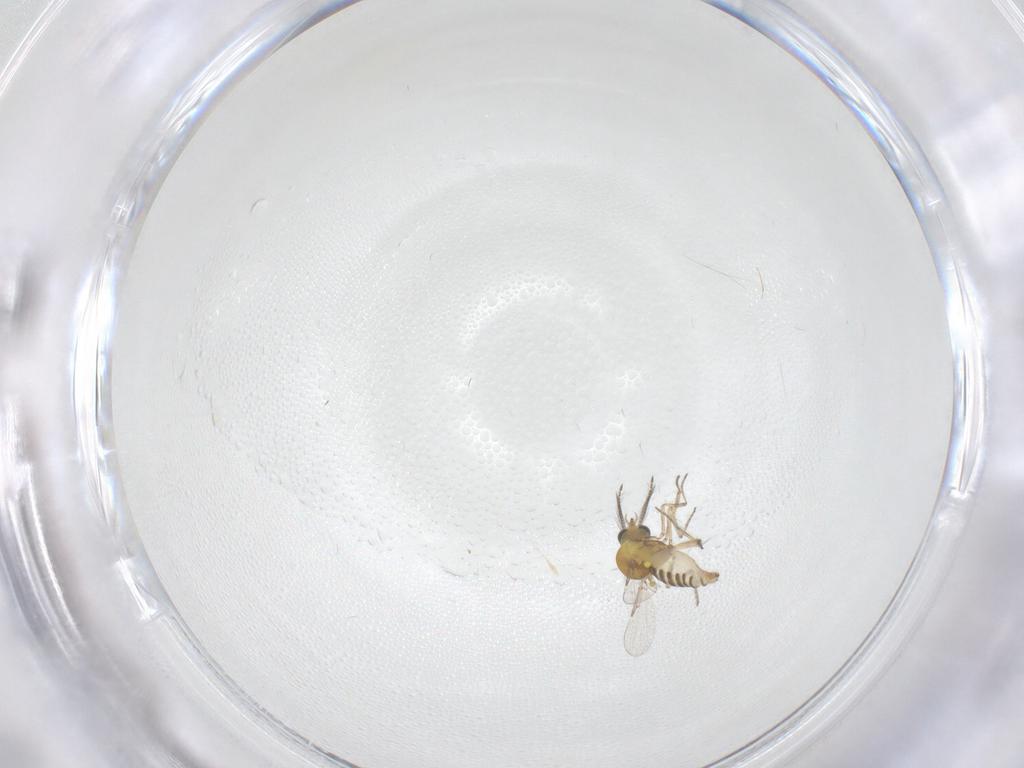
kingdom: Animalia
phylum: Arthropoda
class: Insecta
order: Diptera
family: Ceratopogonidae
